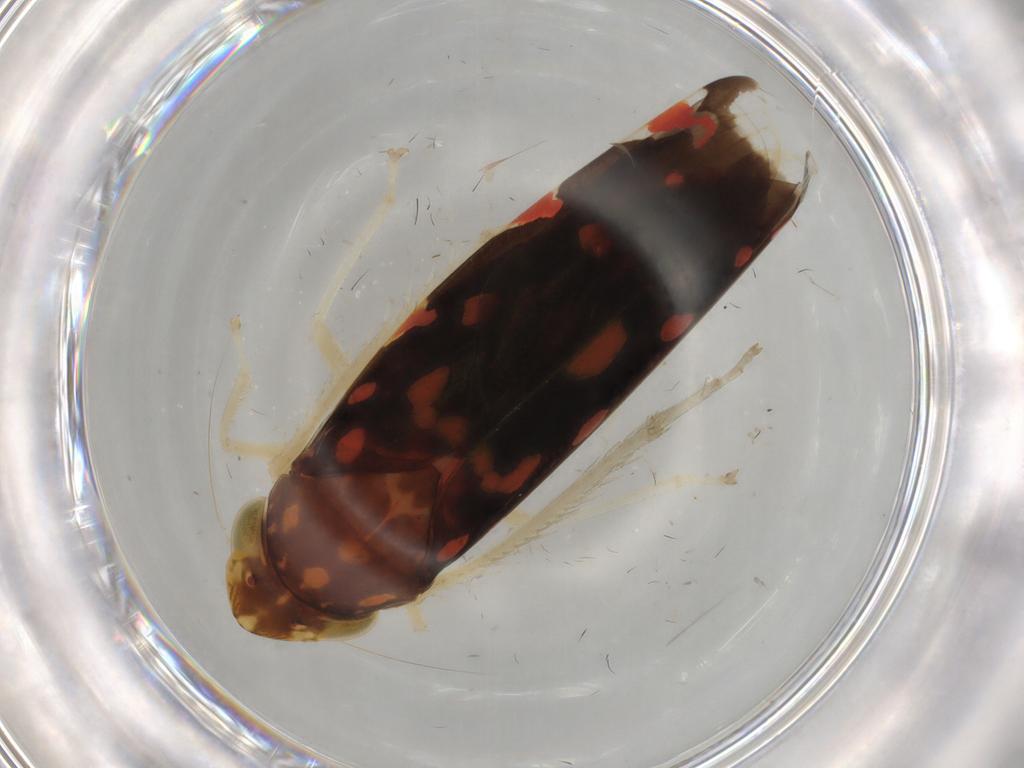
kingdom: Animalia
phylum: Arthropoda
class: Insecta
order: Hemiptera
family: Cicadellidae
